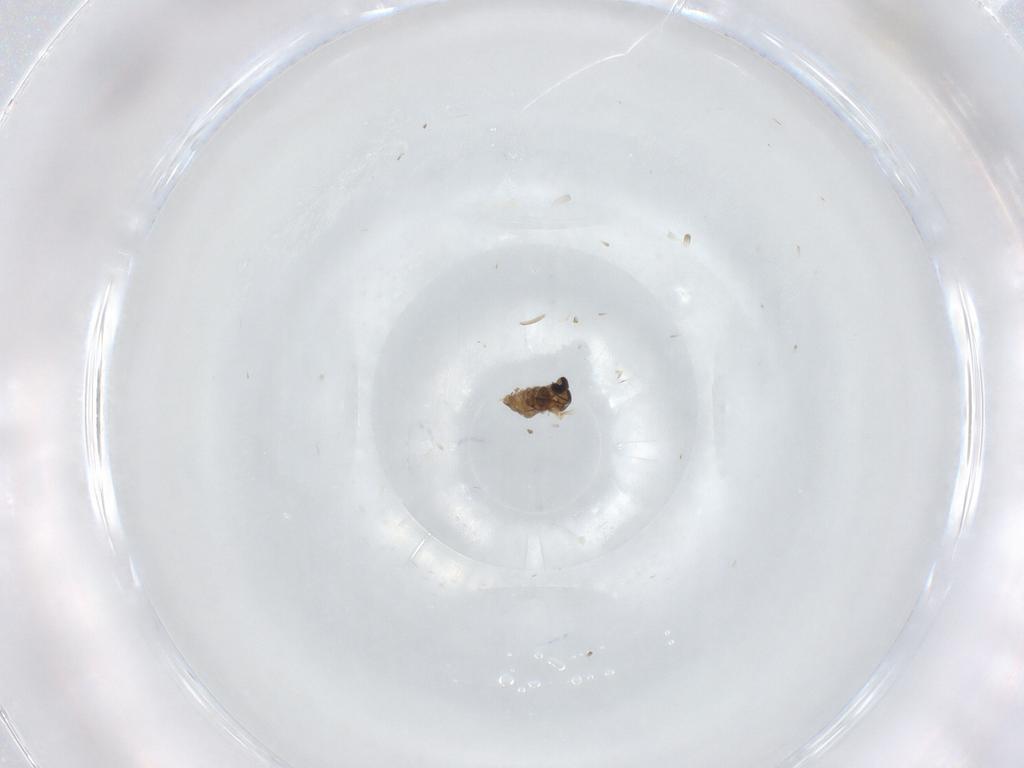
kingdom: Animalia
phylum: Arthropoda
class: Insecta
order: Diptera
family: Cecidomyiidae
